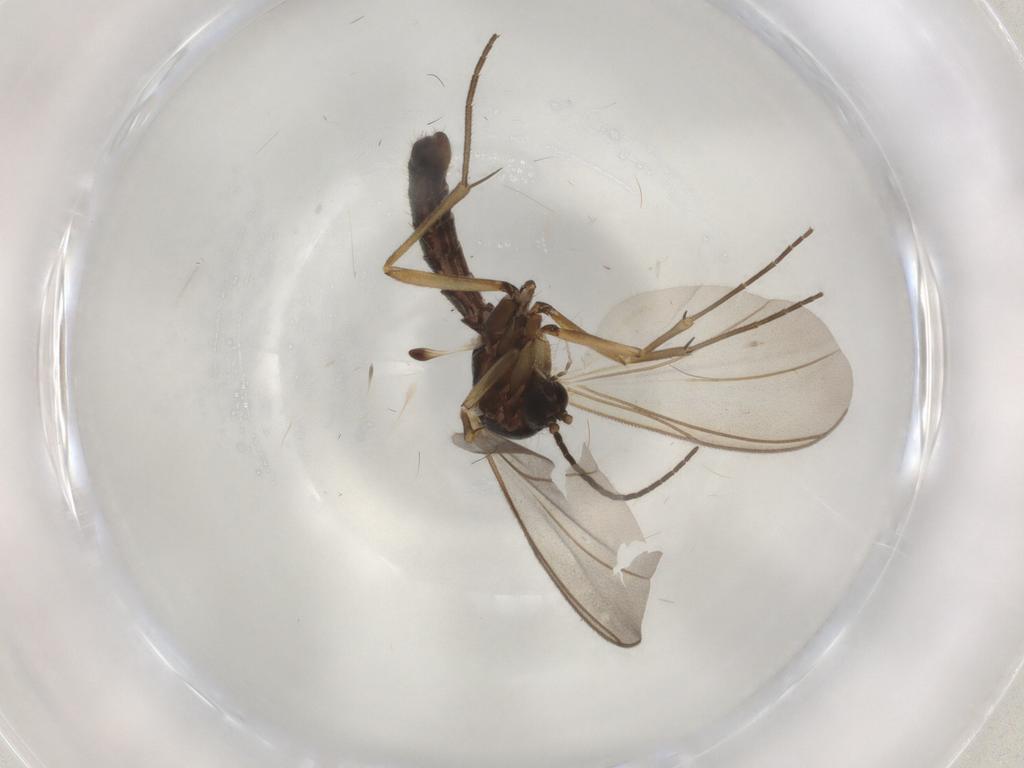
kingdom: Animalia
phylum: Arthropoda
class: Insecta
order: Diptera
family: Mycetophilidae
